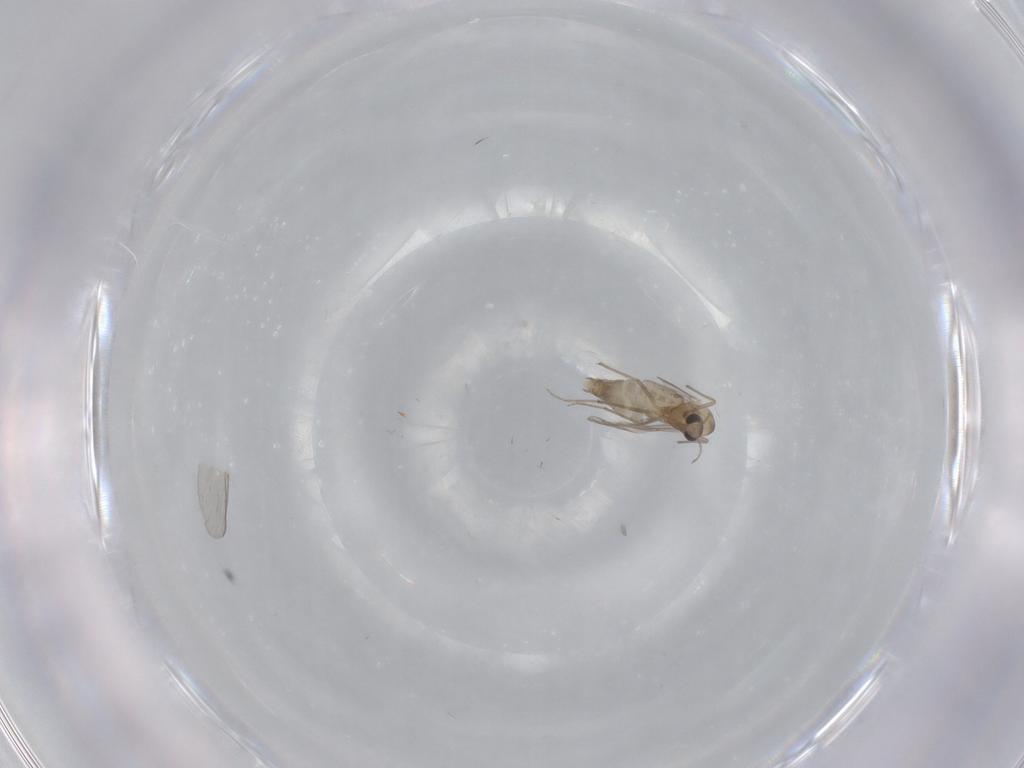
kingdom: Animalia
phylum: Arthropoda
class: Insecta
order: Diptera
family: Chironomidae
